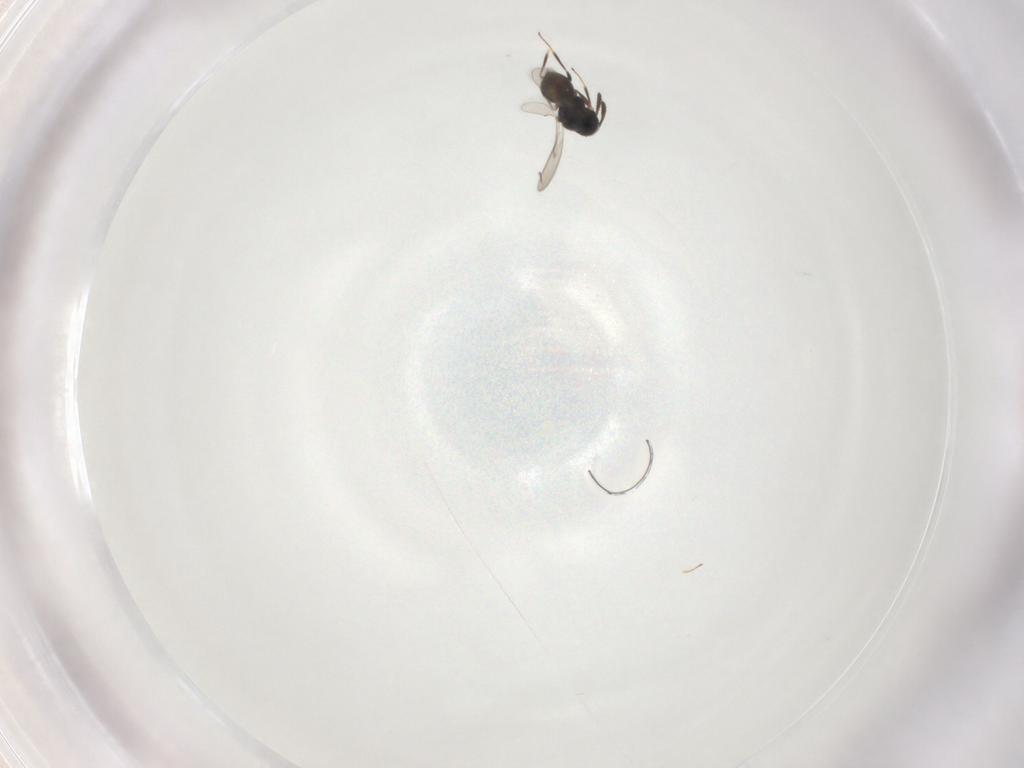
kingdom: Animalia
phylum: Arthropoda
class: Insecta
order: Hymenoptera
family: Scelionidae
